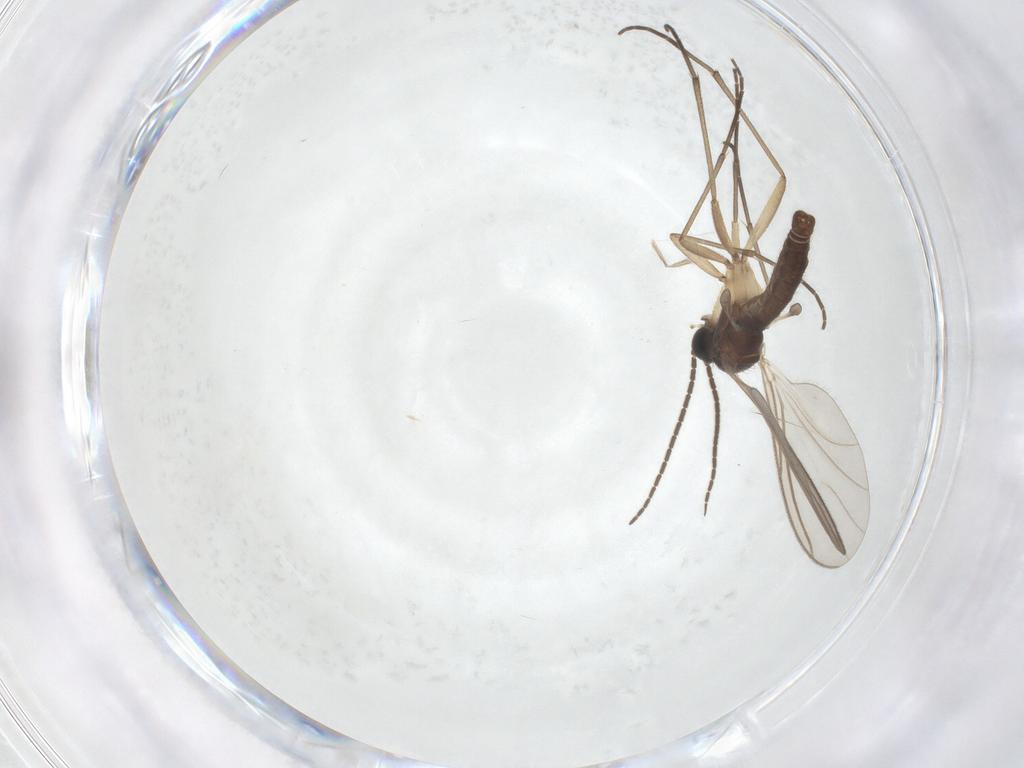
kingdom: Animalia
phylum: Arthropoda
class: Insecta
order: Diptera
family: Sciaridae
